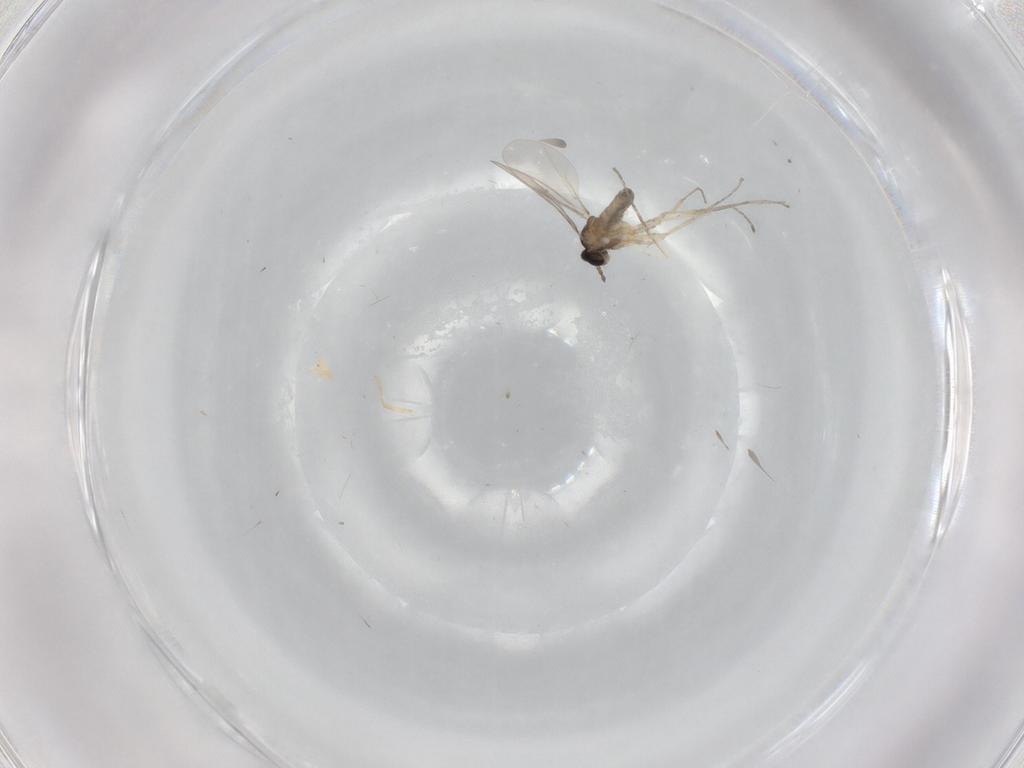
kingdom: Animalia
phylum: Arthropoda
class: Insecta
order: Diptera
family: Cecidomyiidae
